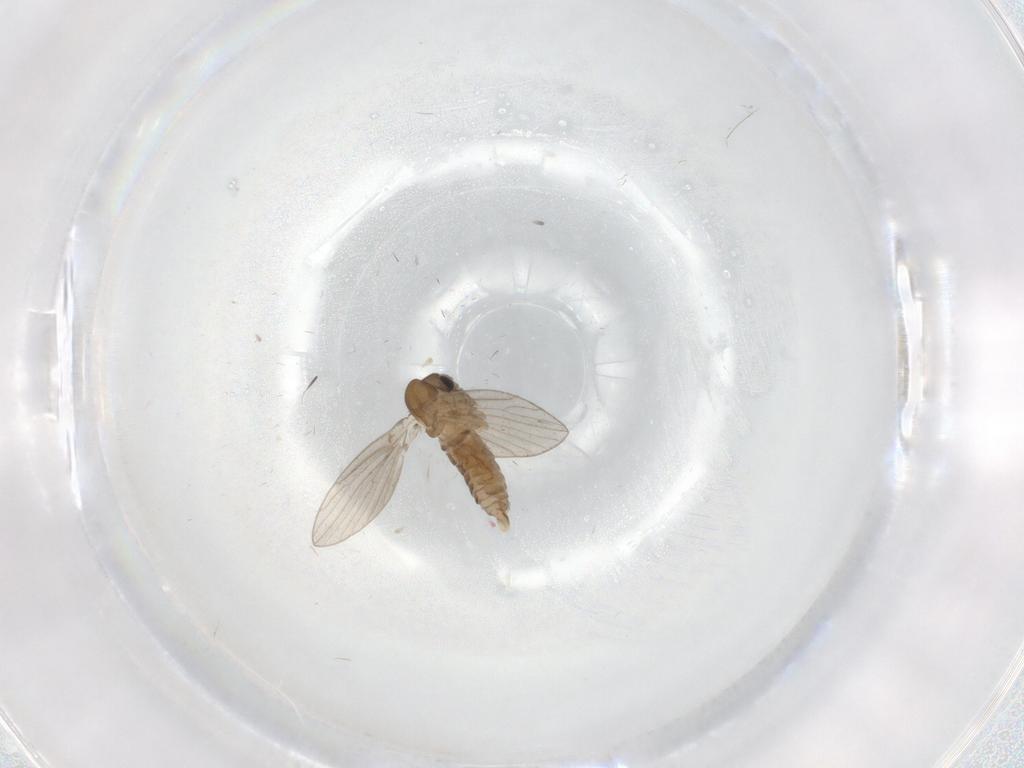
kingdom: Animalia
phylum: Arthropoda
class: Insecta
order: Diptera
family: Psychodidae
